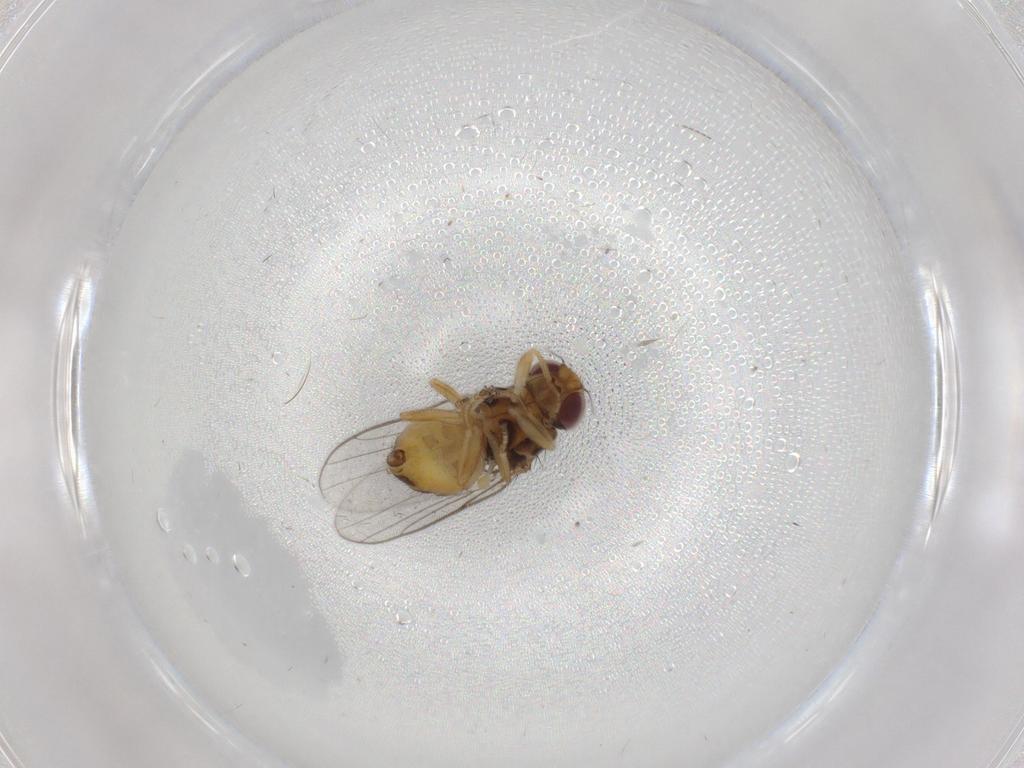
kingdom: Animalia
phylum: Arthropoda
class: Insecta
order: Diptera
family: Chloropidae
